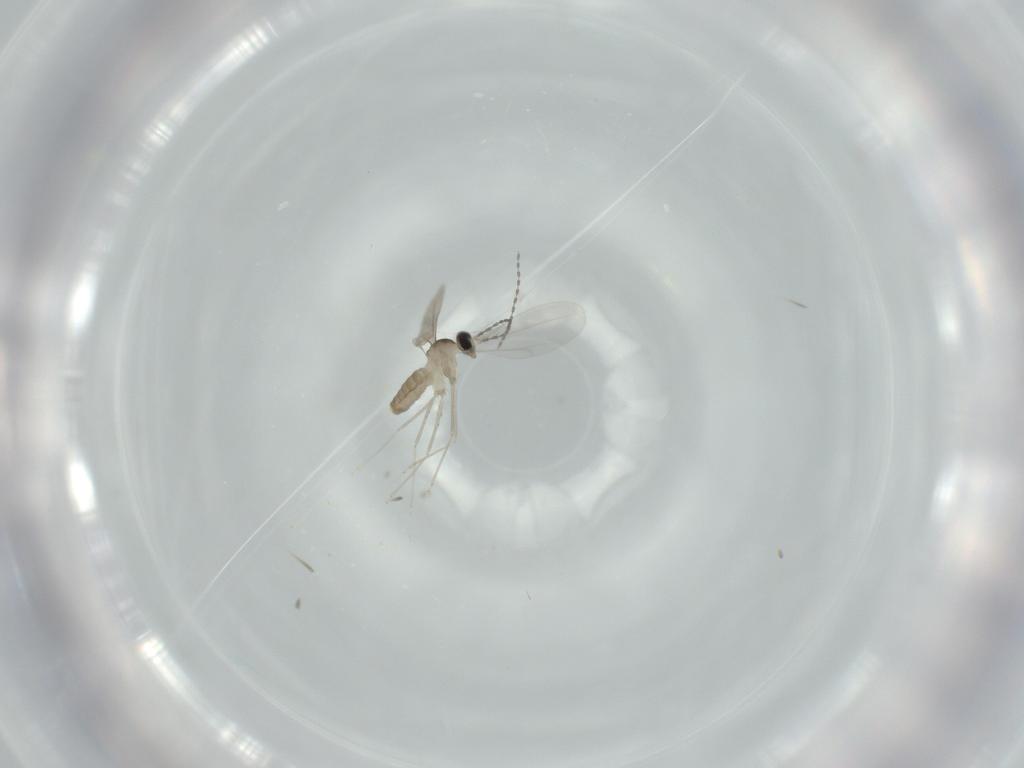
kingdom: Animalia
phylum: Arthropoda
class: Insecta
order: Diptera
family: Cecidomyiidae
